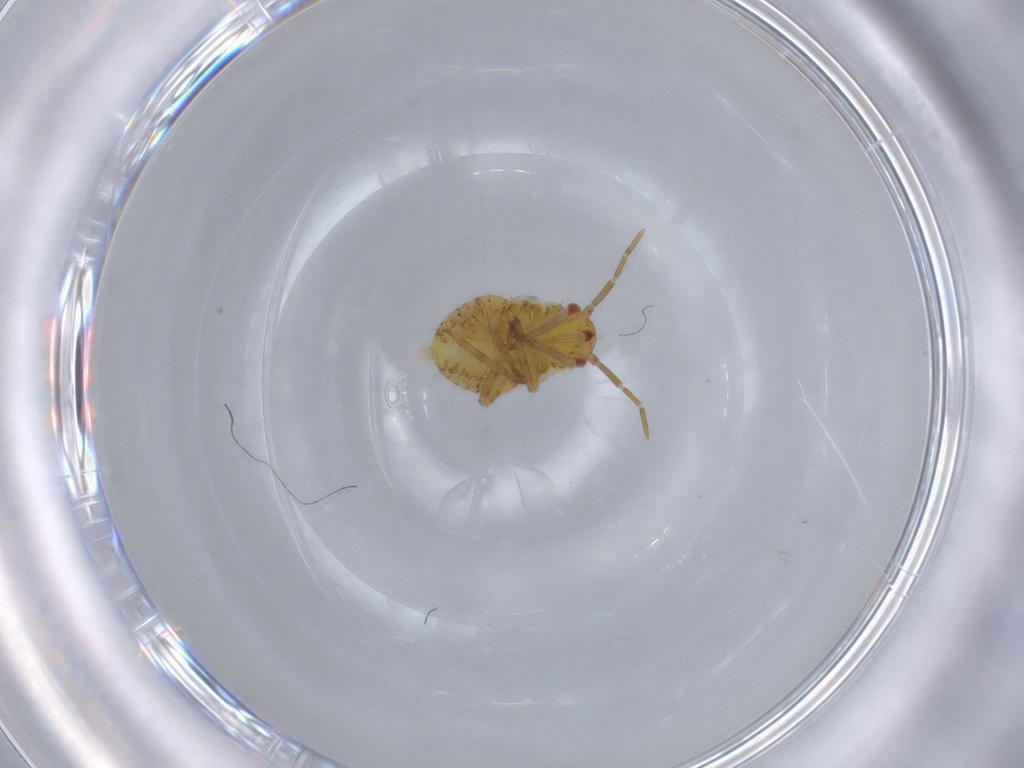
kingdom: Animalia
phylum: Arthropoda
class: Insecta
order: Hemiptera
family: Miridae
